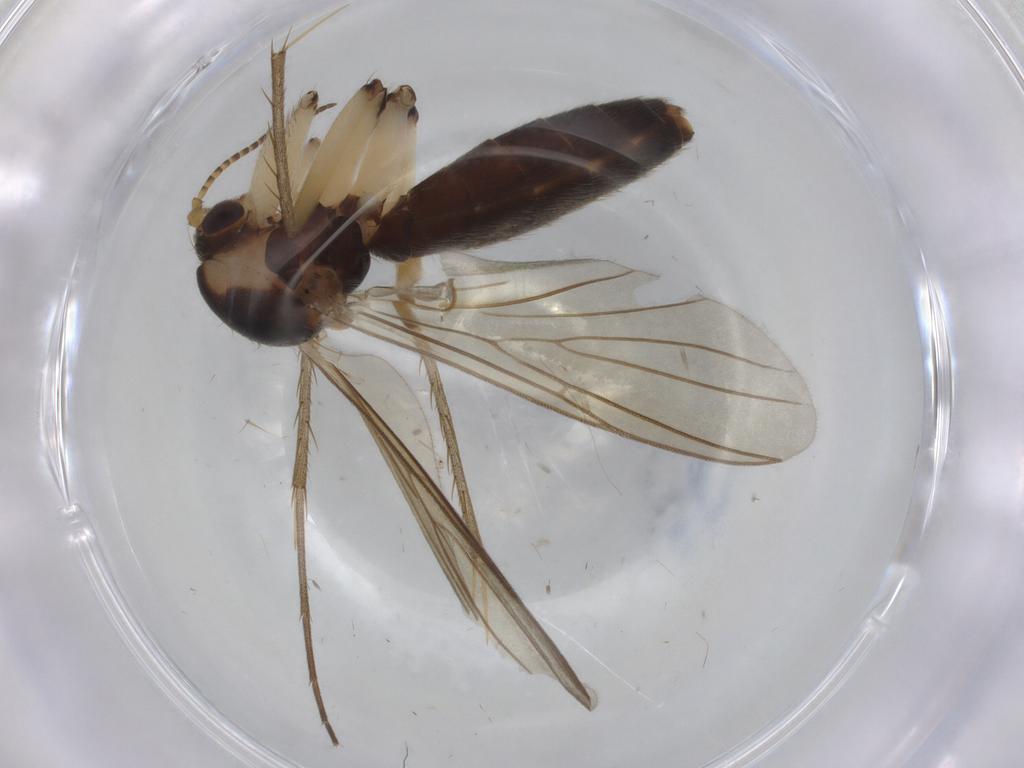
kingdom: Animalia
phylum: Arthropoda
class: Insecta
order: Diptera
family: Mycetophilidae
